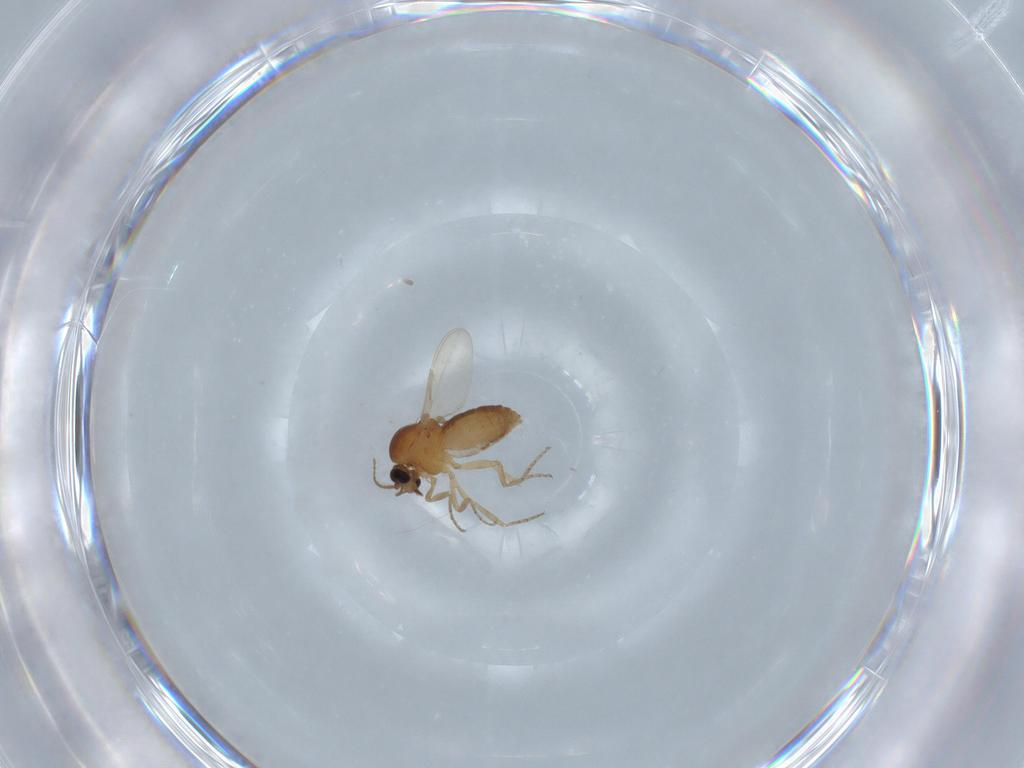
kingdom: Animalia
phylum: Arthropoda
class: Insecta
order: Diptera
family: Ceratopogonidae
